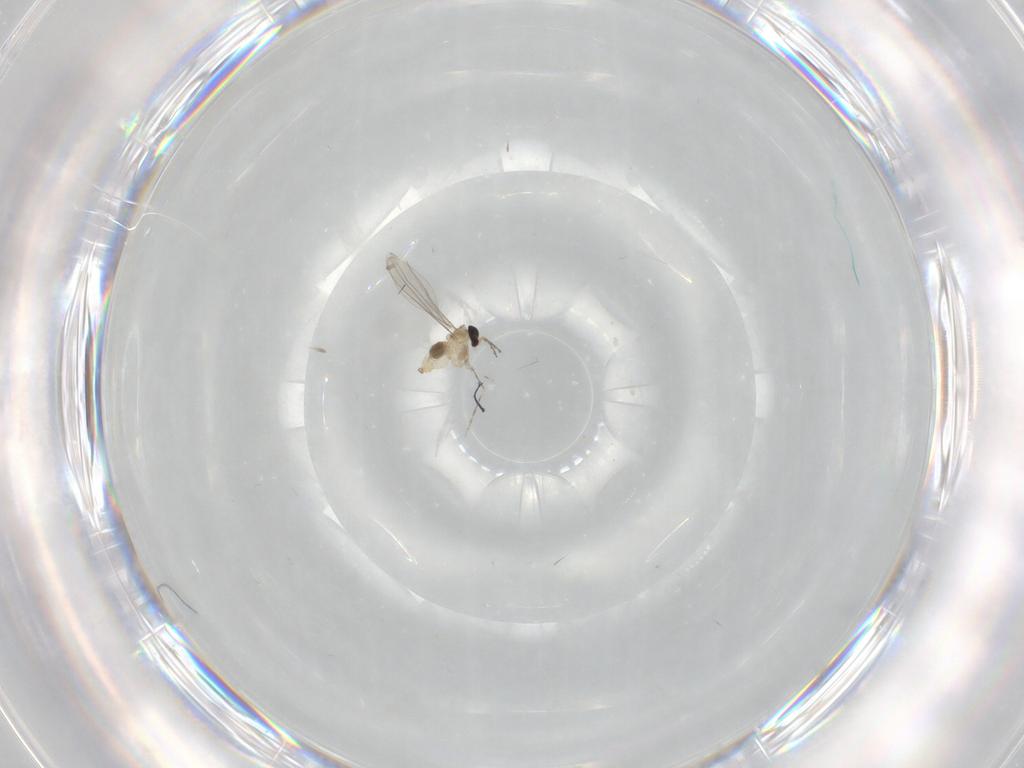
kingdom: Animalia
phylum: Arthropoda
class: Insecta
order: Diptera
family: Cecidomyiidae
